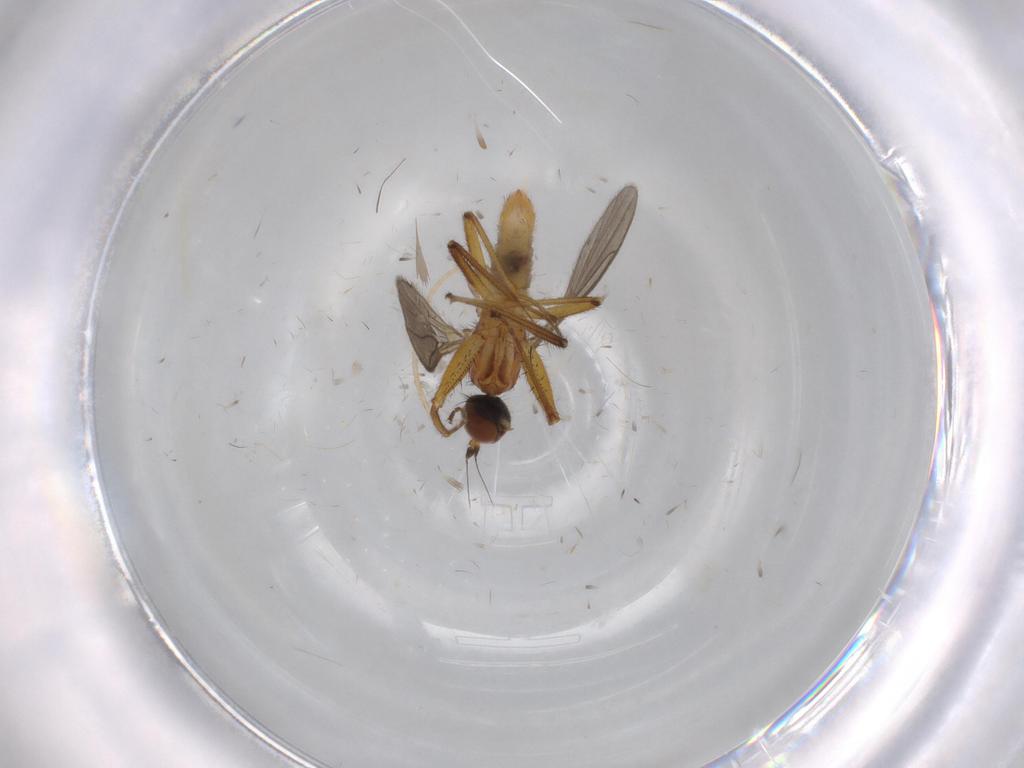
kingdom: Animalia
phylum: Arthropoda
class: Insecta
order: Diptera
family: Empididae
